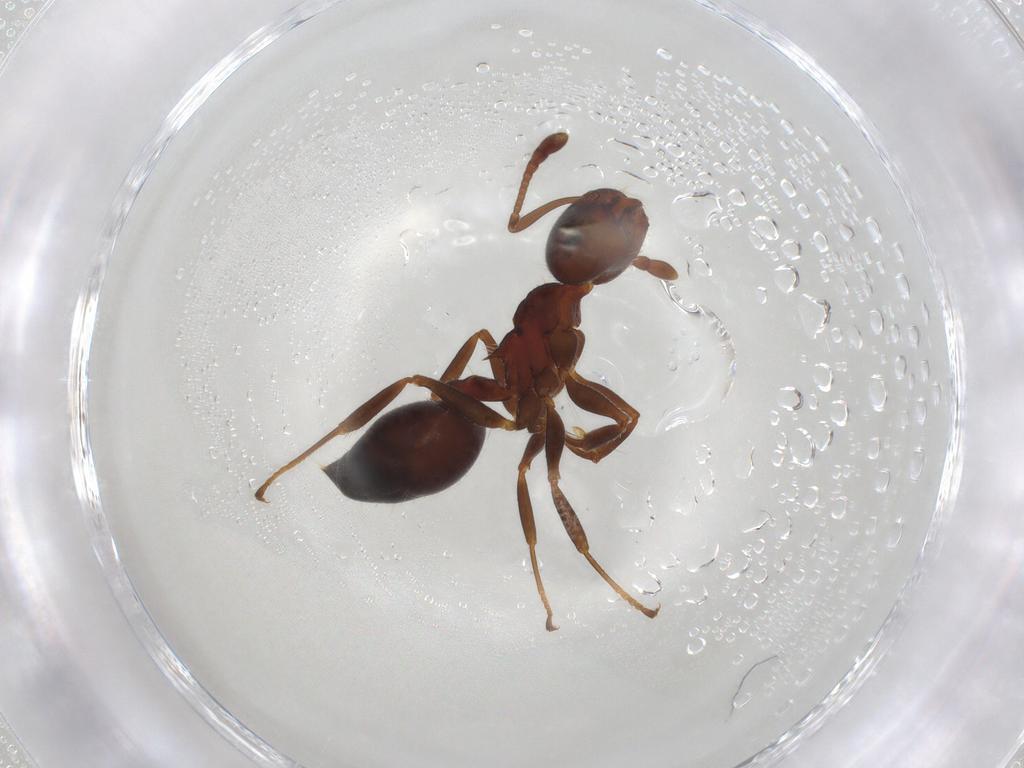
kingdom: Animalia
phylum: Arthropoda
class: Insecta
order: Hymenoptera
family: Formicidae
